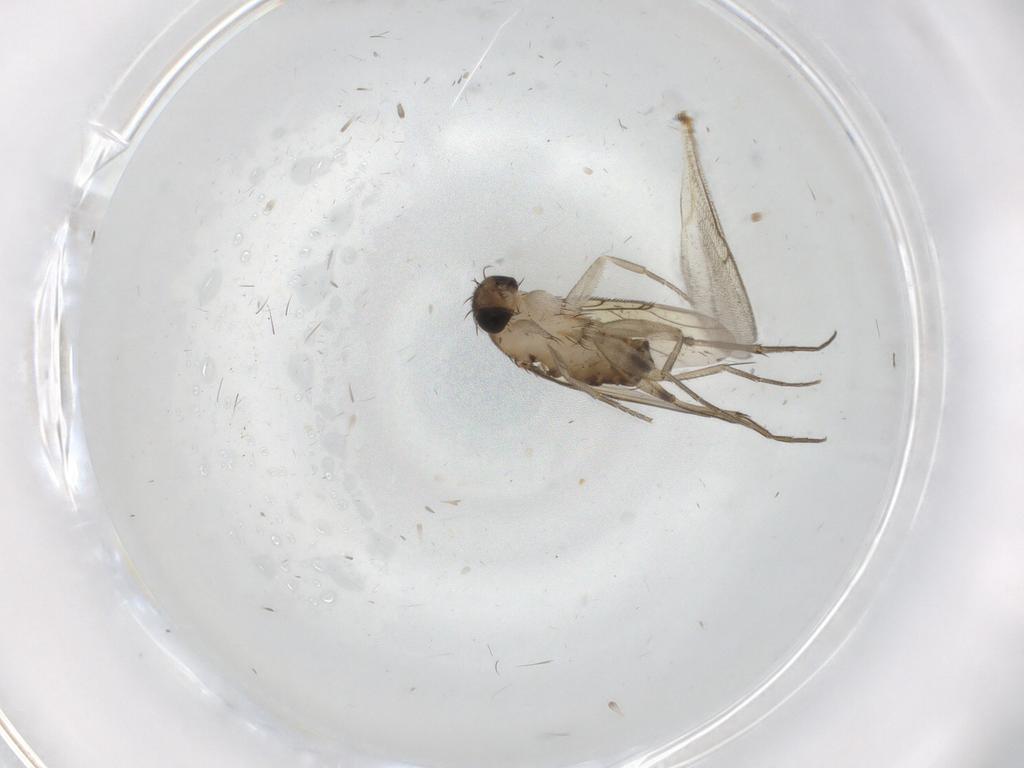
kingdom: Animalia
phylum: Arthropoda
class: Insecta
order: Diptera
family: Phoridae
